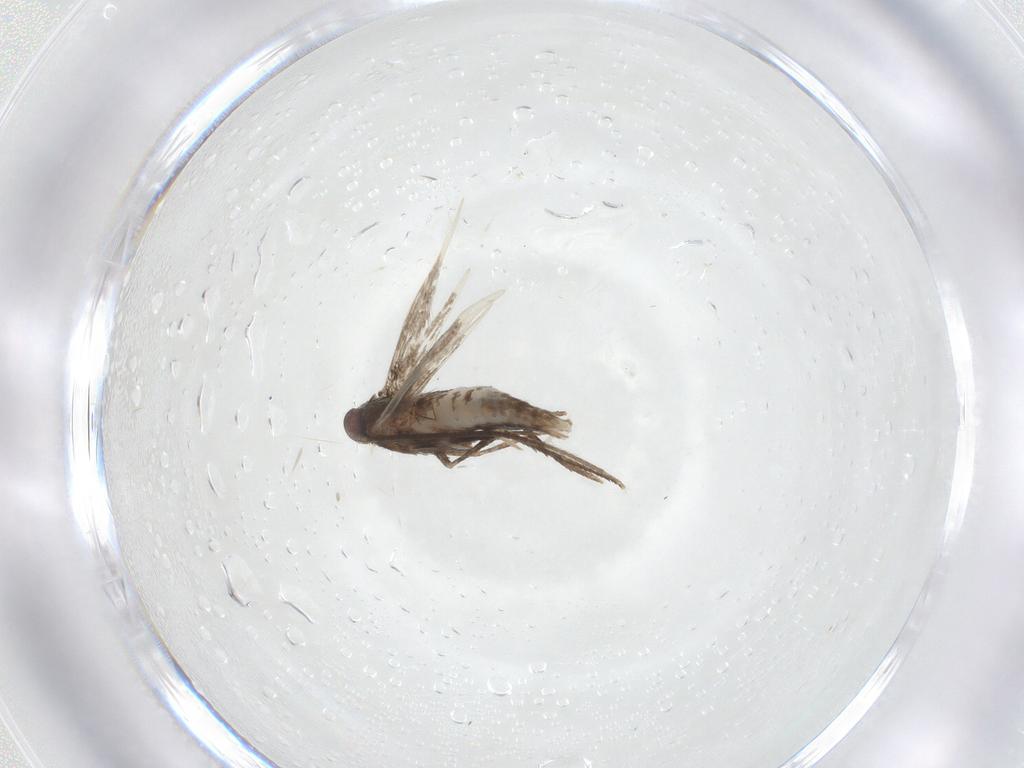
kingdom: Animalia
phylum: Arthropoda
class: Insecta
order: Lepidoptera
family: Gracillariidae
